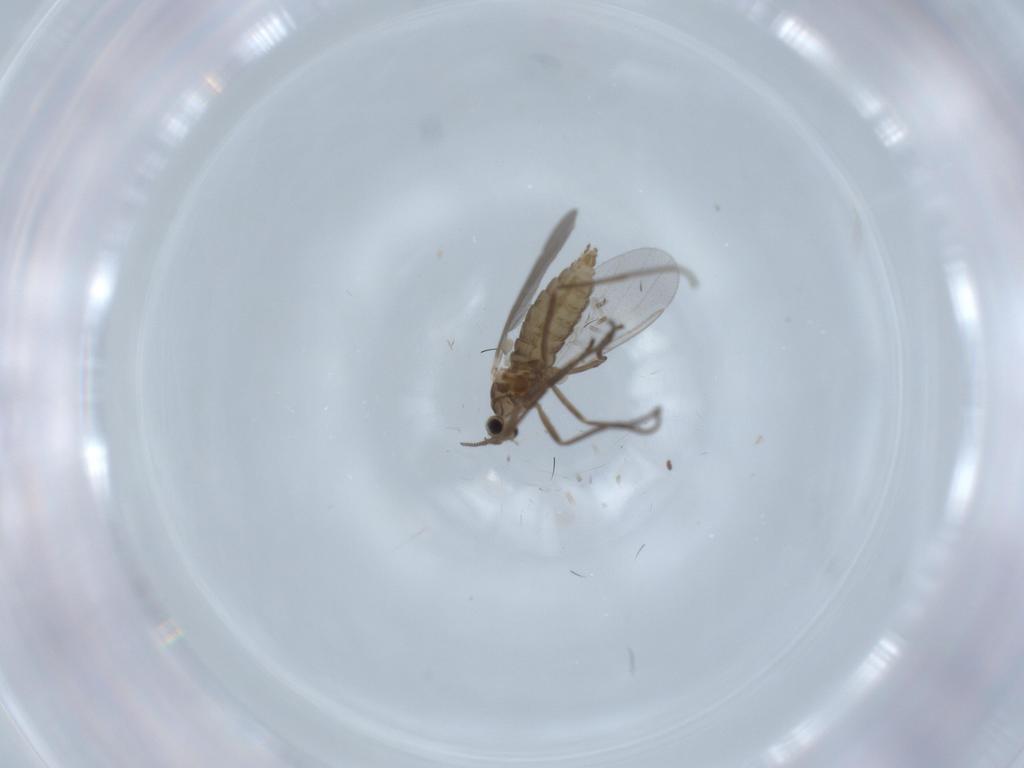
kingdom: Animalia
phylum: Arthropoda
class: Insecta
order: Diptera
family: Cecidomyiidae
